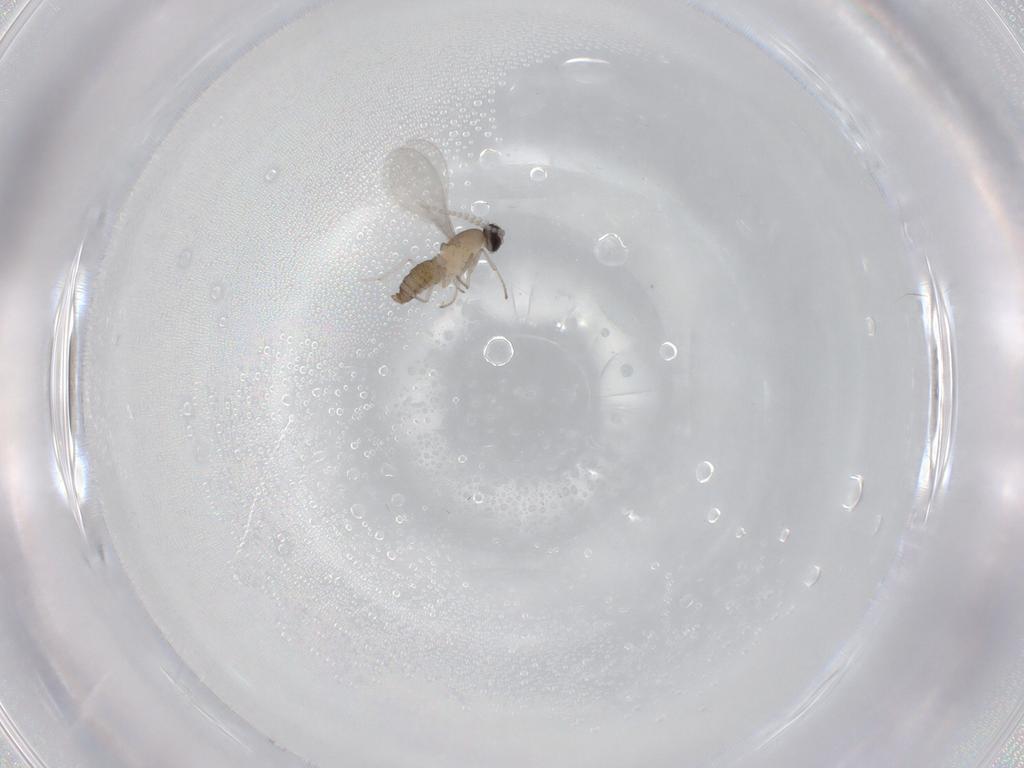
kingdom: Animalia
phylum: Arthropoda
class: Insecta
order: Diptera
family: Cecidomyiidae
